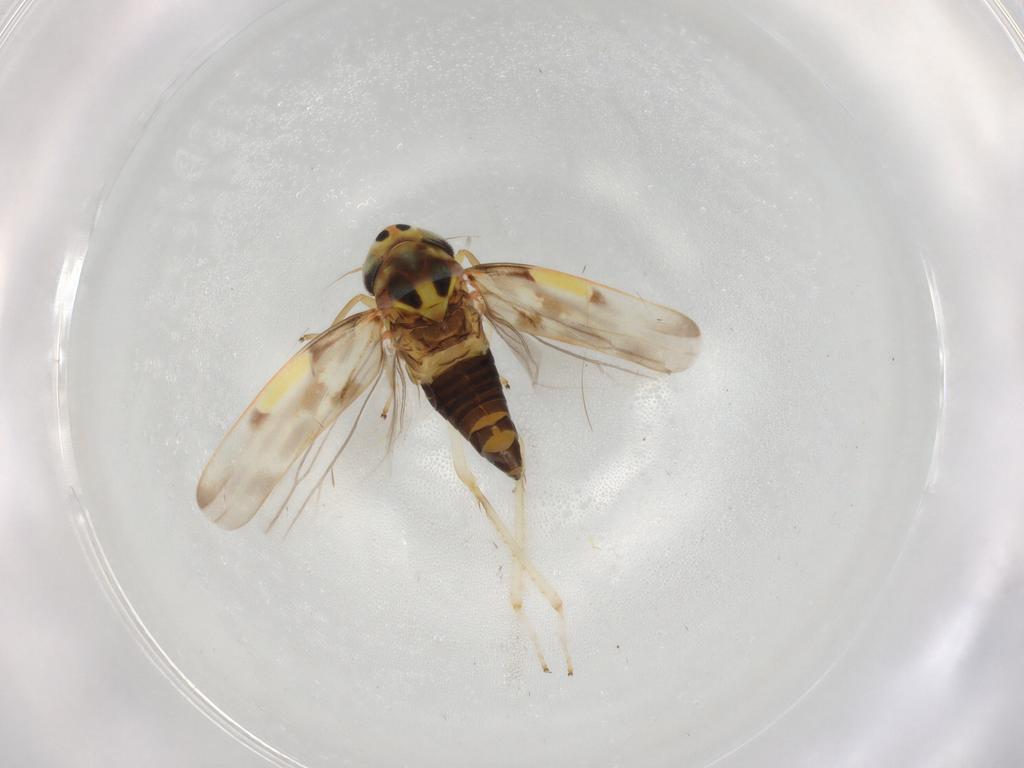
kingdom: Animalia
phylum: Arthropoda
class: Insecta
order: Hemiptera
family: Cicadellidae
